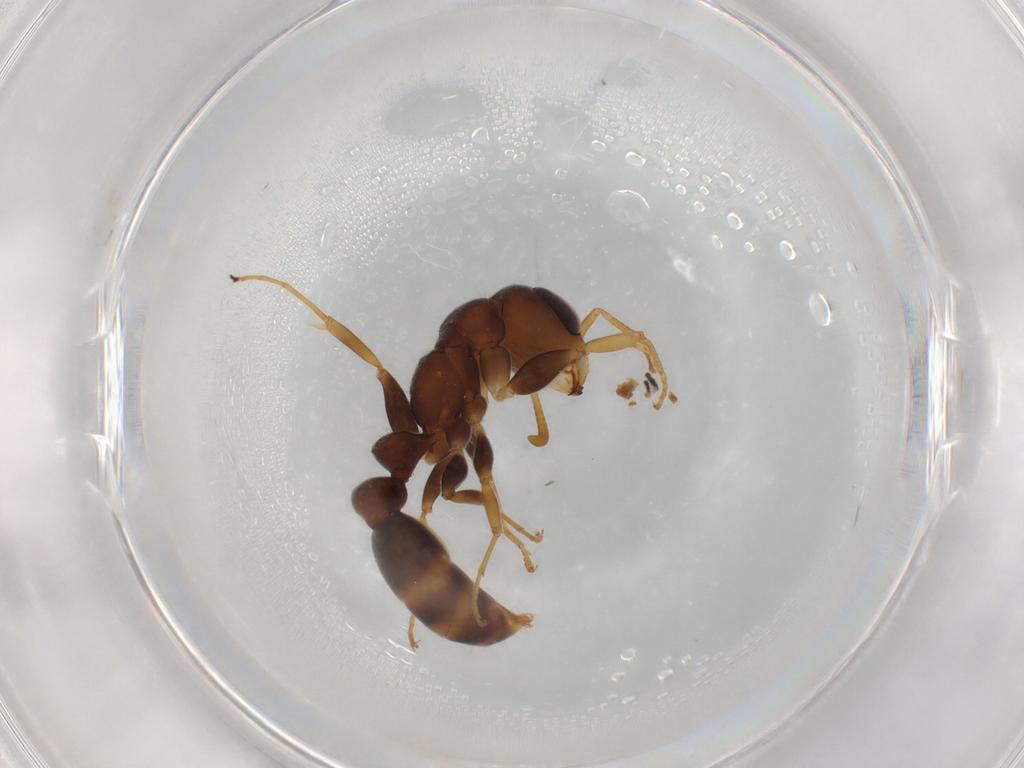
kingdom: Animalia
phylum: Arthropoda
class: Insecta
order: Hymenoptera
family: Formicidae
